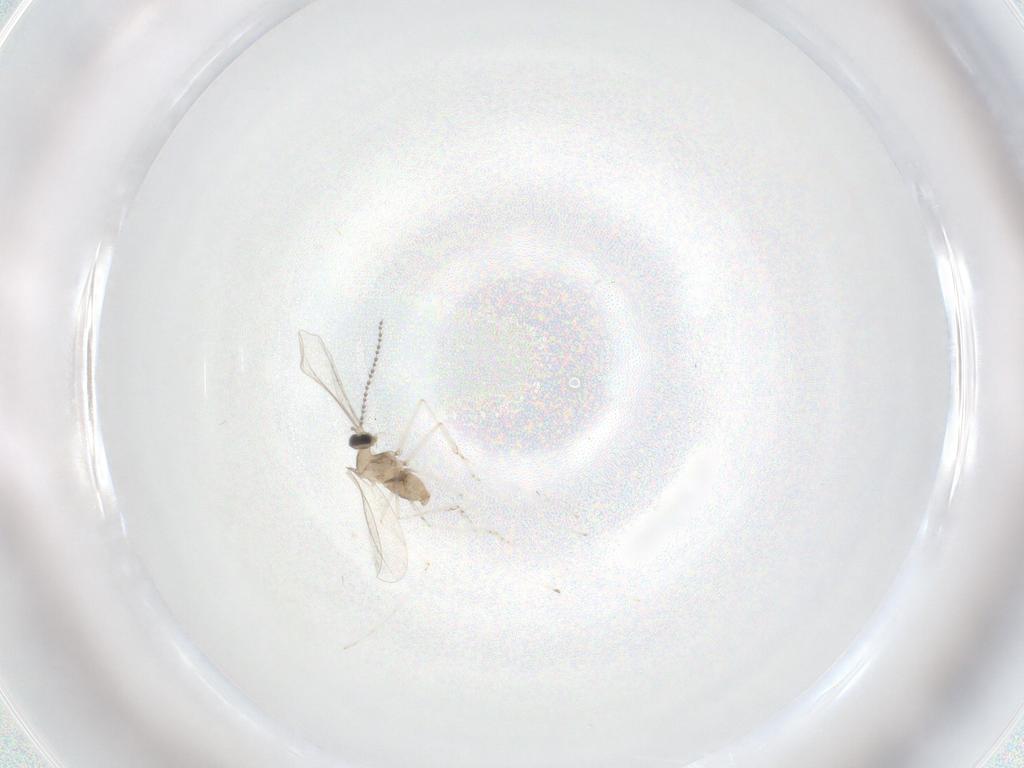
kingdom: Animalia
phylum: Arthropoda
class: Insecta
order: Diptera
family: Cecidomyiidae
